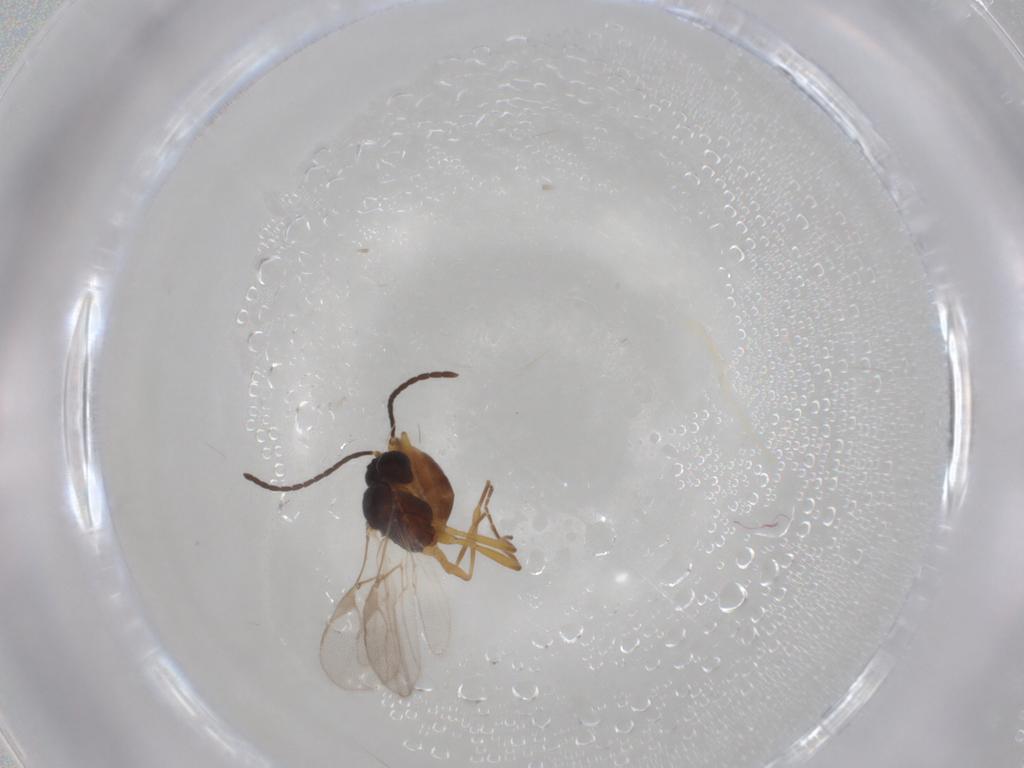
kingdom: Animalia
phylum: Arthropoda
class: Insecta
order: Hymenoptera
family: Braconidae
